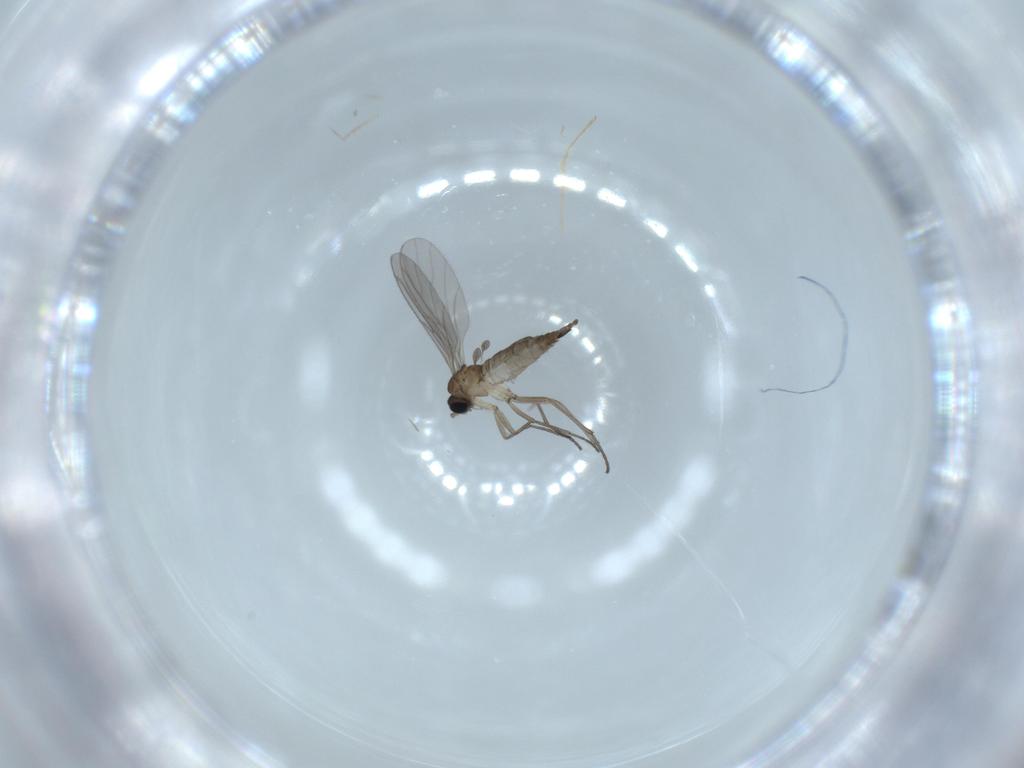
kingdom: Animalia
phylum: Arthropoda
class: Insecta
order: Diptera
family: Sciaridae
